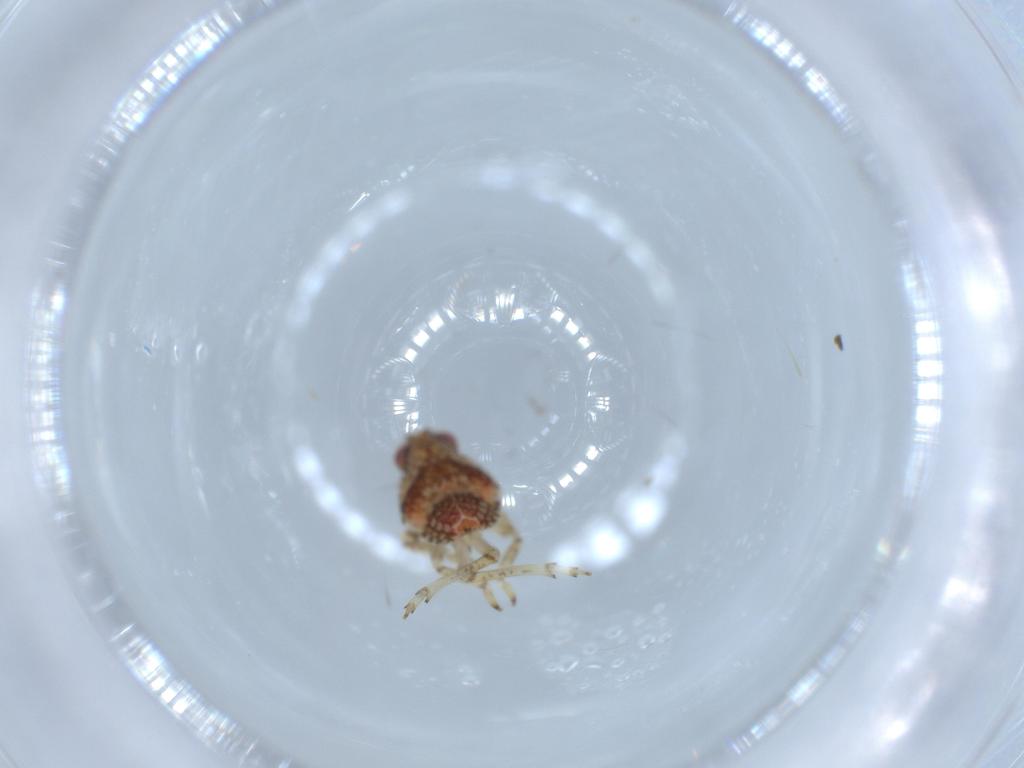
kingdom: Animalia
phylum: Arthropoda
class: Insecta
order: Hemiptera
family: Issidae
